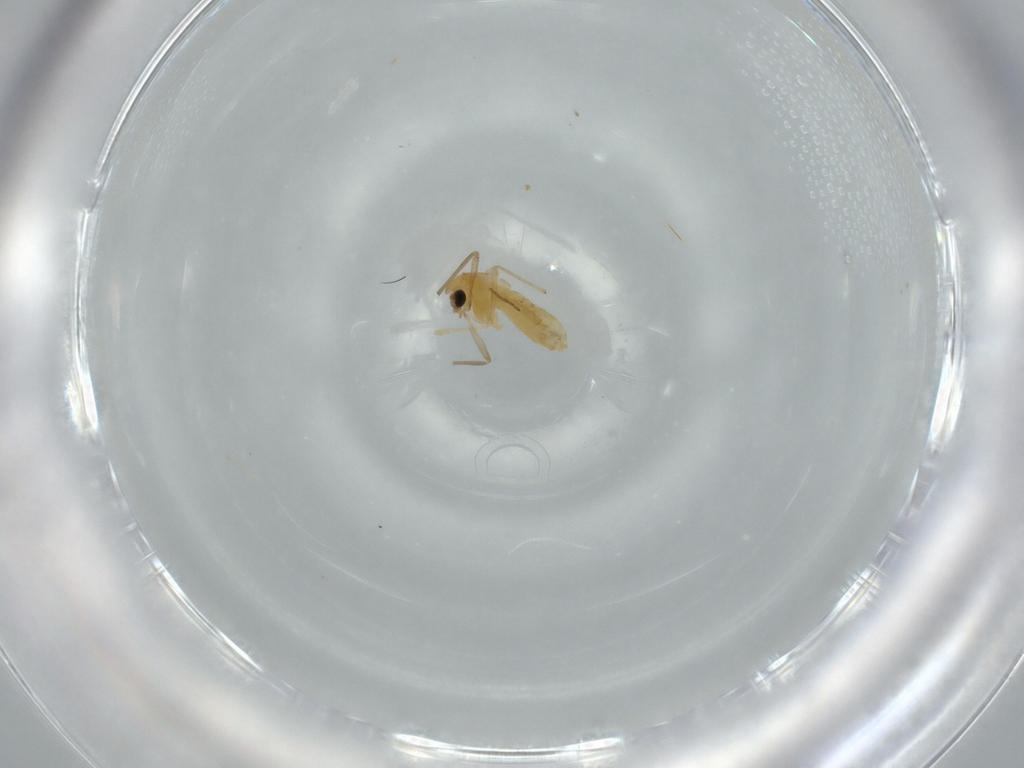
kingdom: Animalia
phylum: Arthropoda
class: Insecta
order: Diptera
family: Chironomidae
